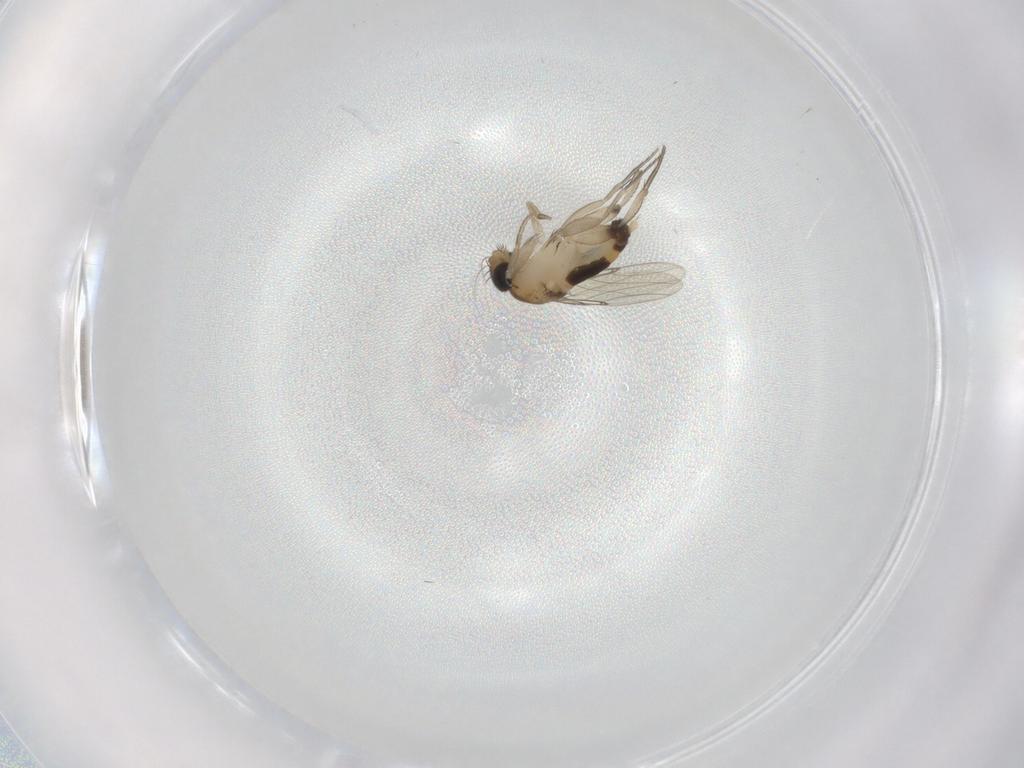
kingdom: Animalia
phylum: Arthropoda
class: Insecta
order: Diptera
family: Phoridae
